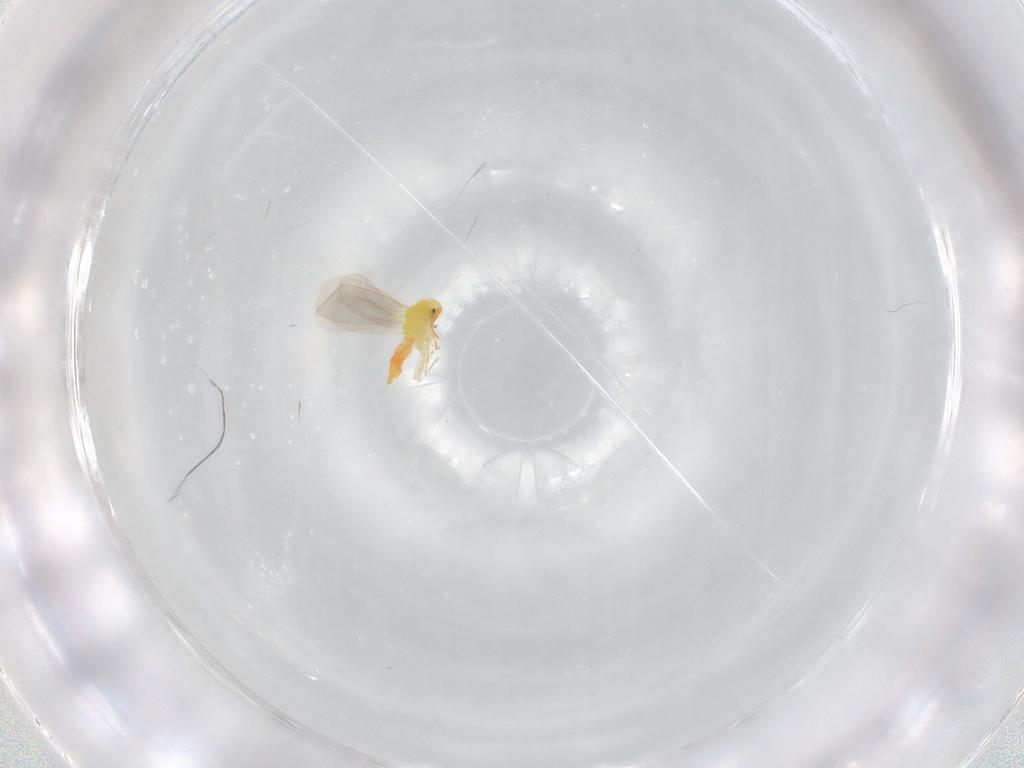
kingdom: Animalia
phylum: Arthropoda
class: Insecta
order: Hemiptera
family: Aleyrodidae
